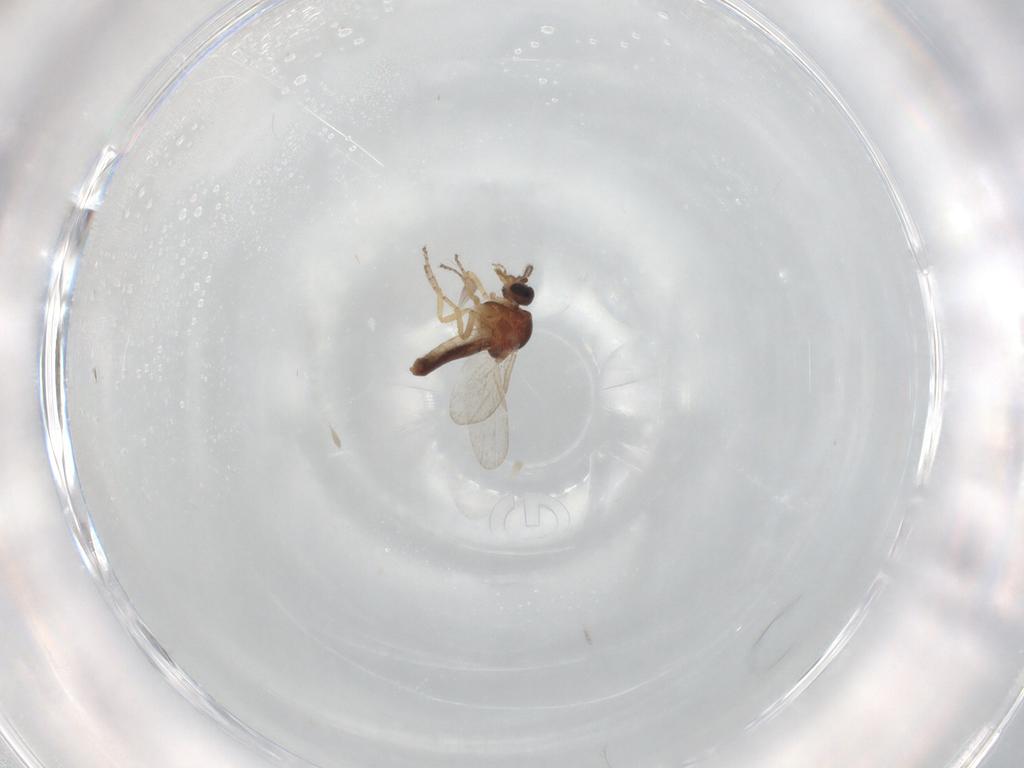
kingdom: Animalia
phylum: Arthropoda
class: Insecta
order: Diptera
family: Ceratopogonidae
